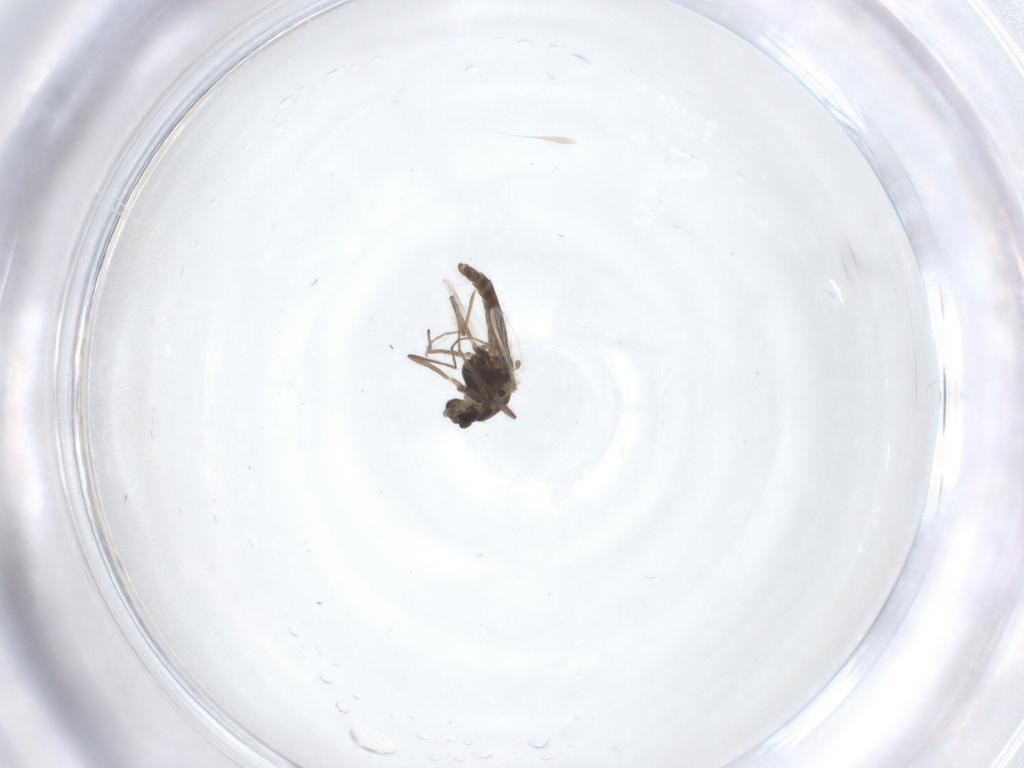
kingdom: Animalia
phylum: Arthropoda
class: Insecta
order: Diptera
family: Chironomidae
